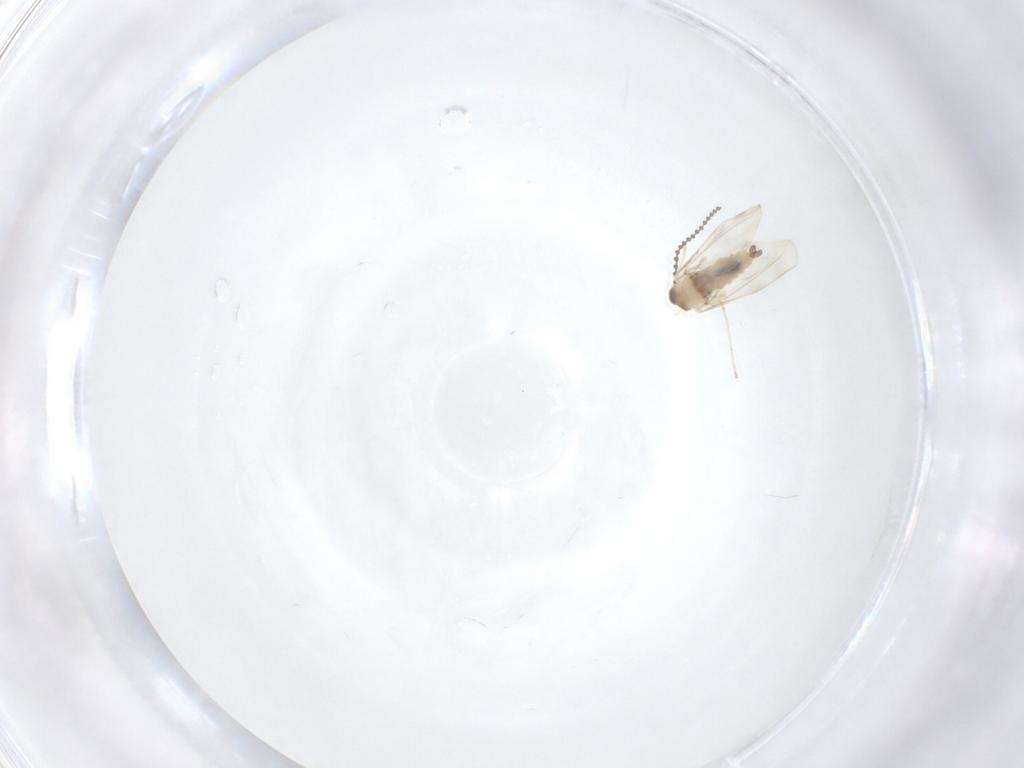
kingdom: Animalia
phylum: Arthropoda
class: Insecta
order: Diptera
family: Cecidomyiidae
